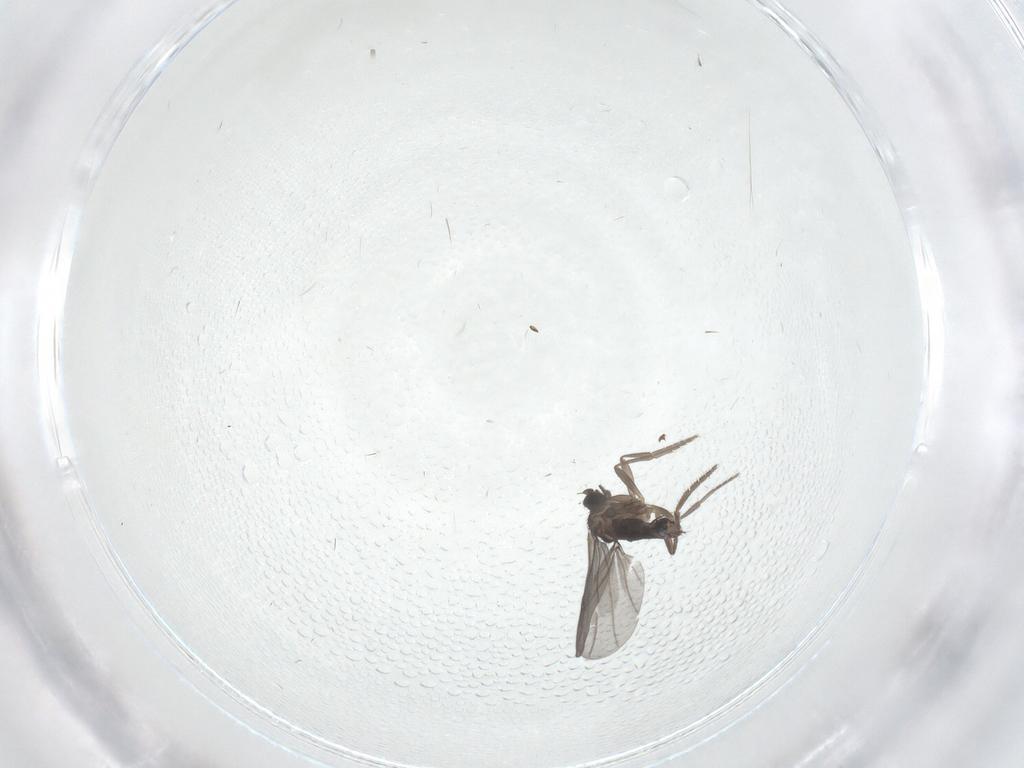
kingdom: Animalia
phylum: Arthropoda
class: Insecta
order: Diptera
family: Phoridae
